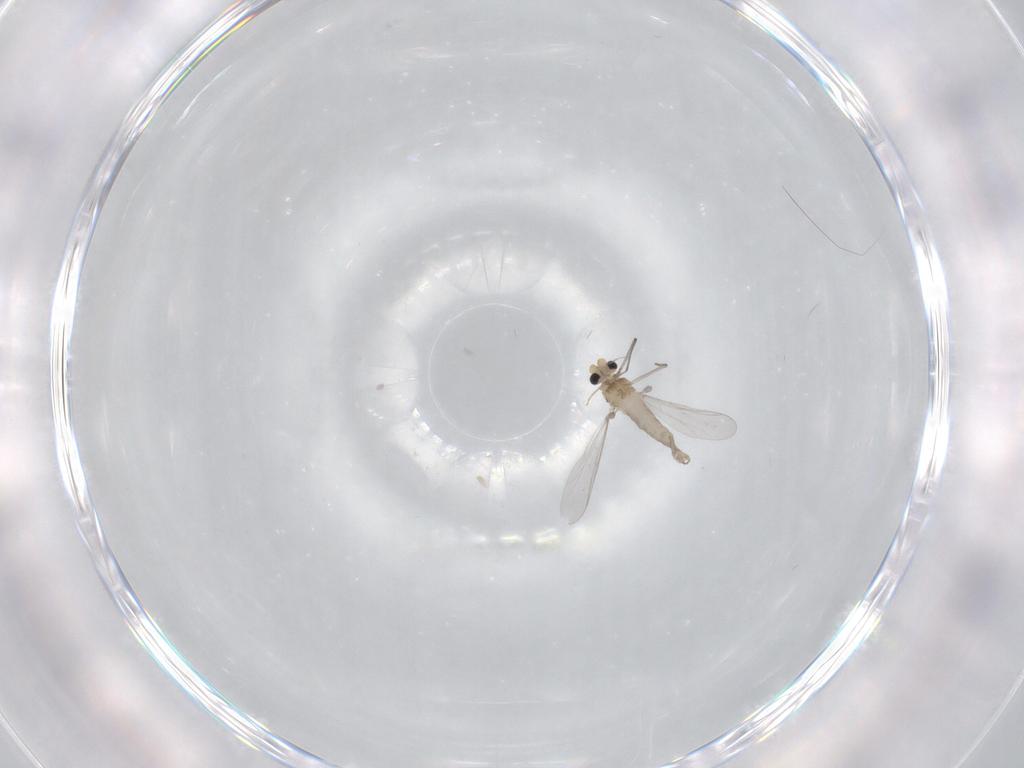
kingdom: Animalia
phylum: Arthropoda
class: Insecta
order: Diptera
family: Chironomidae
